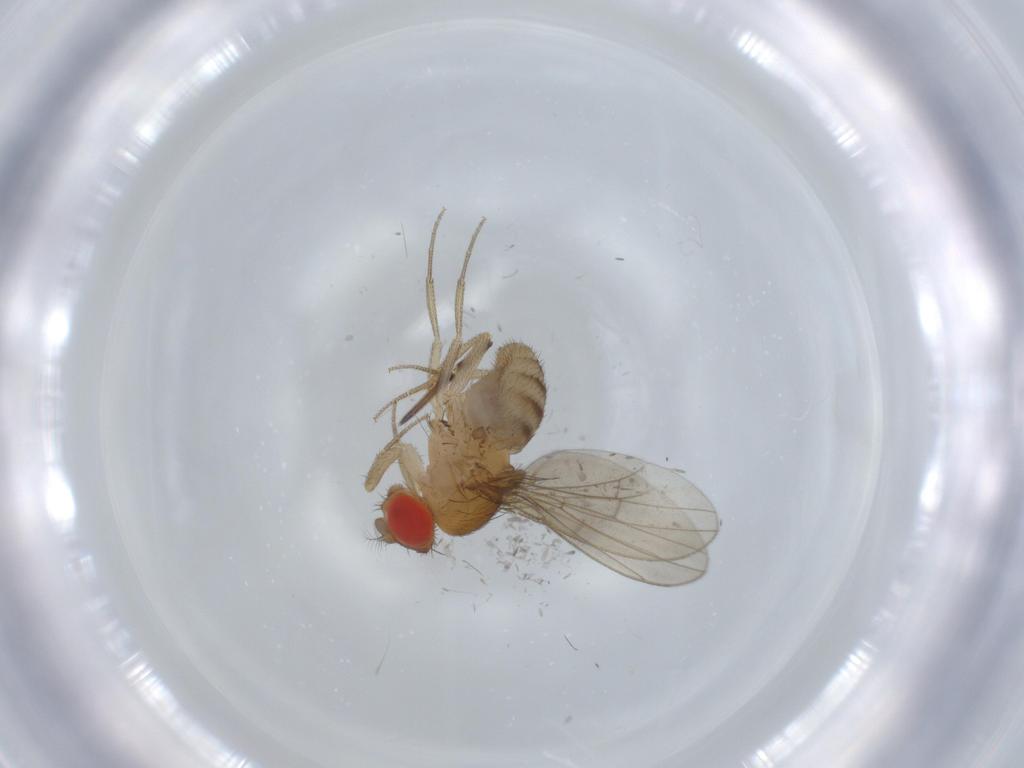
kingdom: Animalia
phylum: Arthropoda
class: Insecta
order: Diptera
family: Drosophilidae
